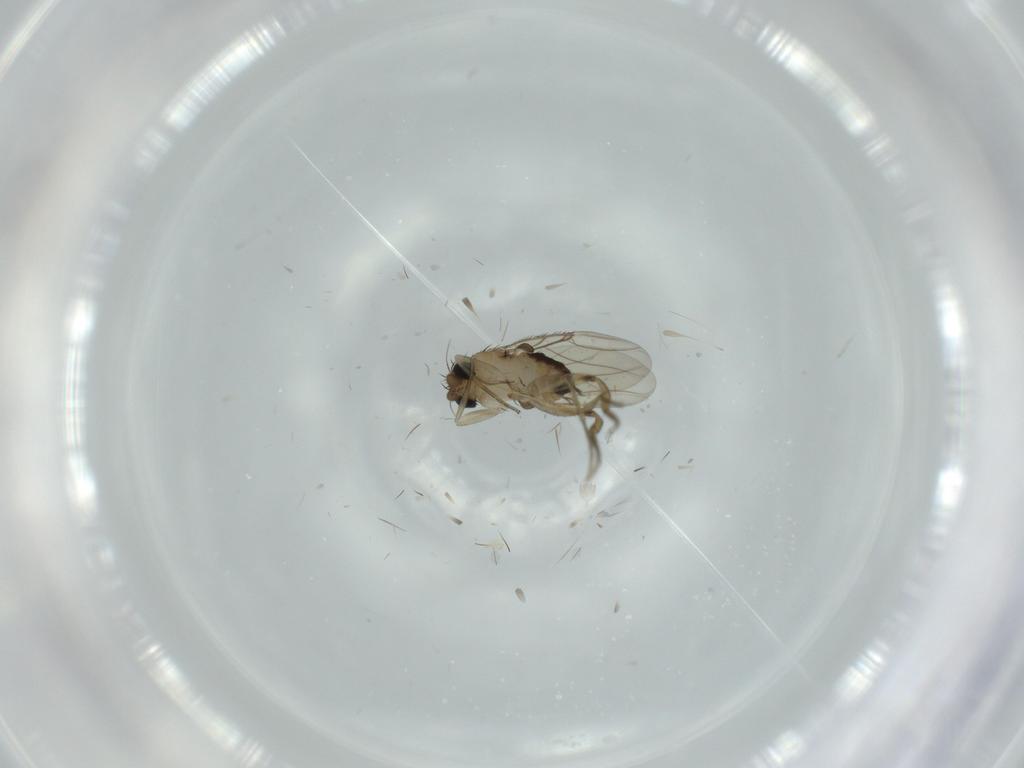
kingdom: Animalia
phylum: Arthropoda
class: Insecta
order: Diptera
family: Phoridae
